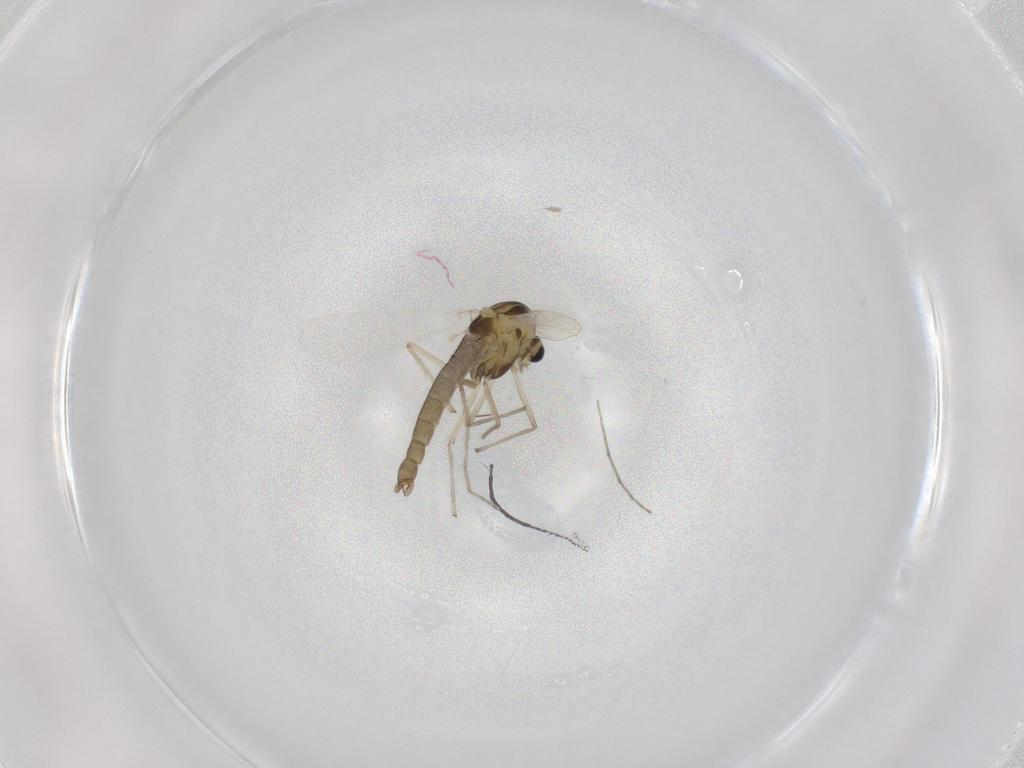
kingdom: Animalia
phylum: Arthropoda
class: Insecta
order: Diptera
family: Chironomidae
